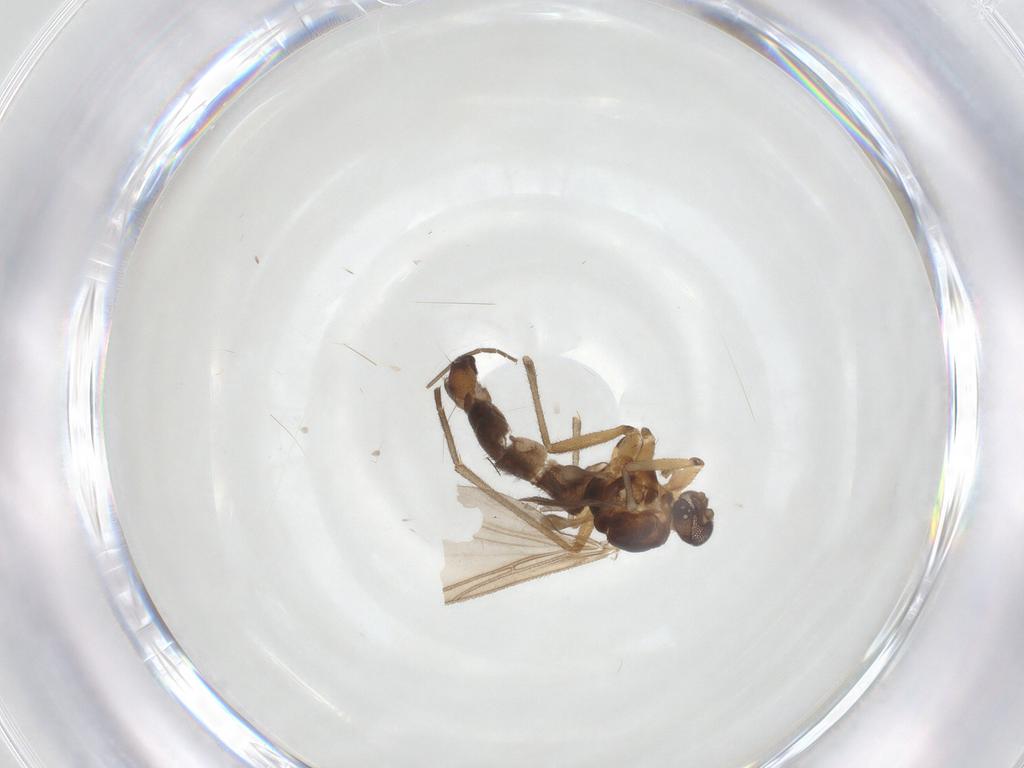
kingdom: Animalia
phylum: Arthropoda
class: Insecta
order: Diptera
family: Sciaridae
